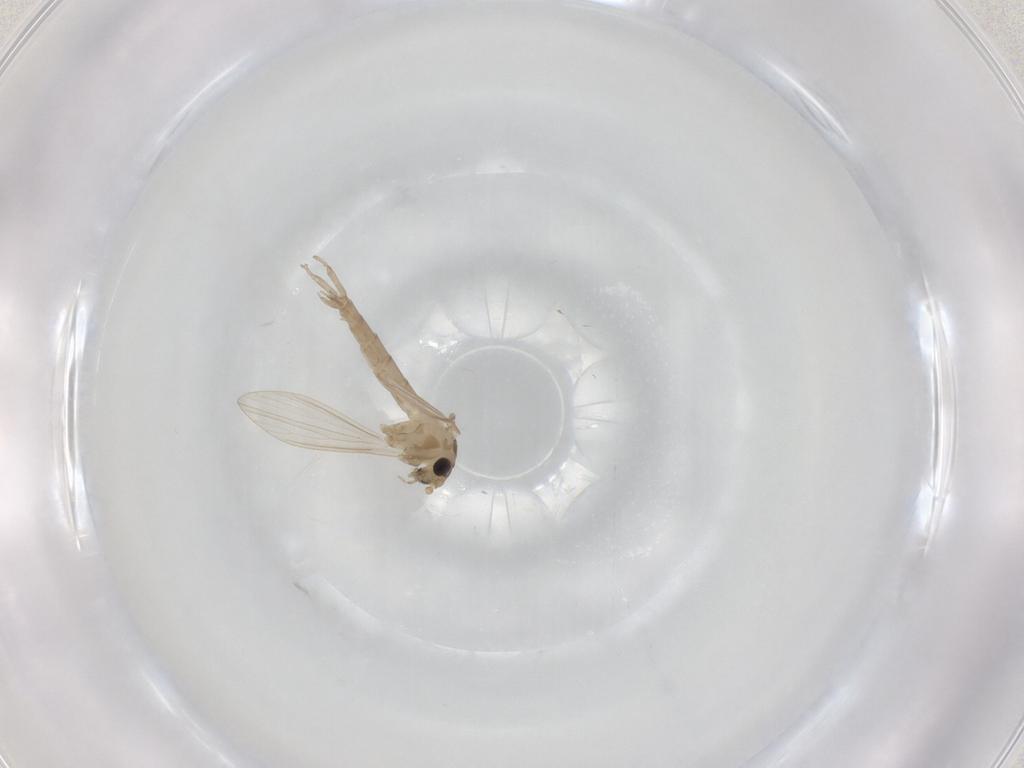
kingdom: Animalia
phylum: Arthropoda
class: Insecta
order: Diptera
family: Psychodidae
